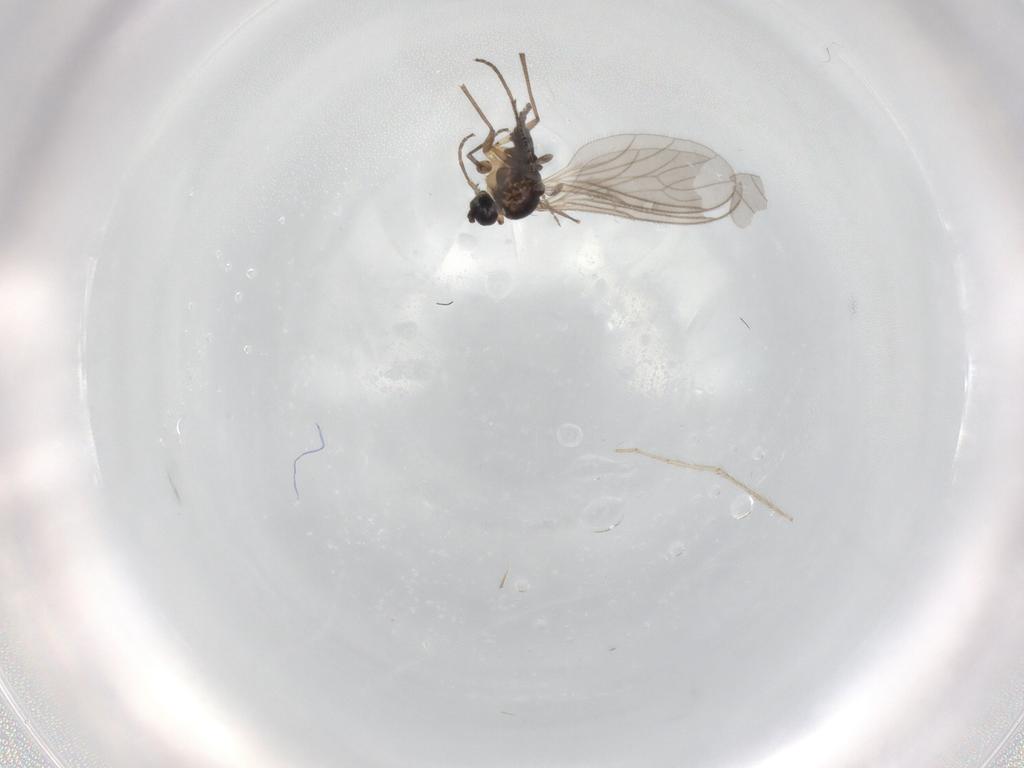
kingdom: Animalia
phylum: Arthropoda
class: Insecta
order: Diptera
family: Sciaridae
